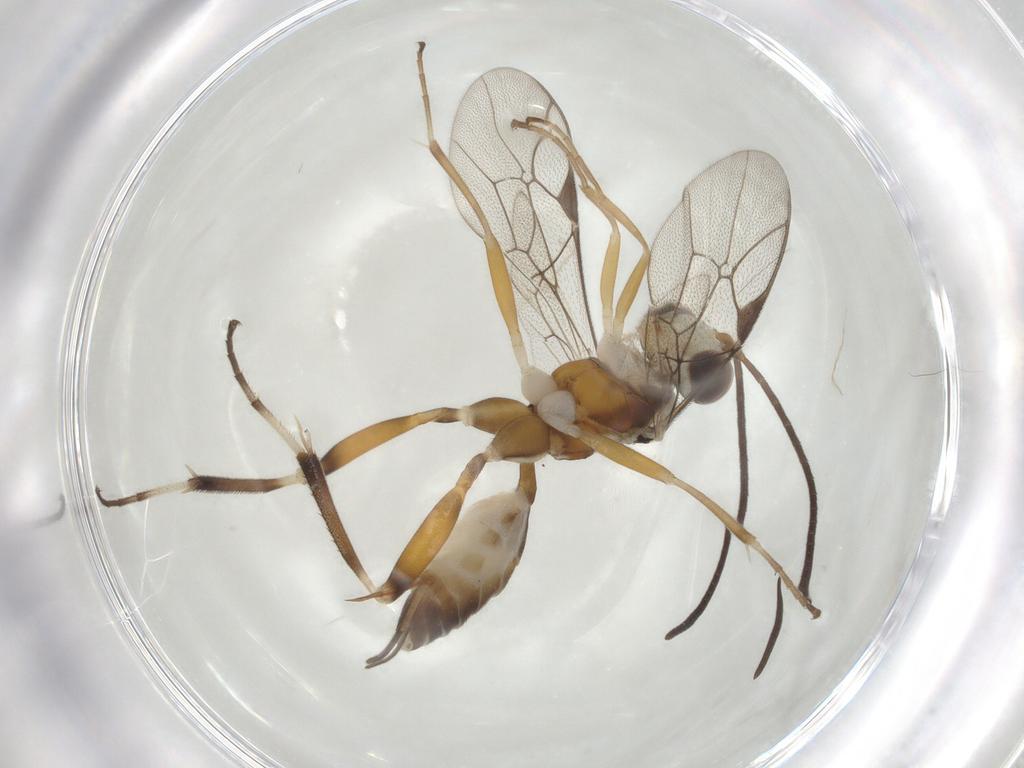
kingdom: Animalia
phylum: Arthropoda
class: Insecta
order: Hymenoptera
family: Ichneumonidae
